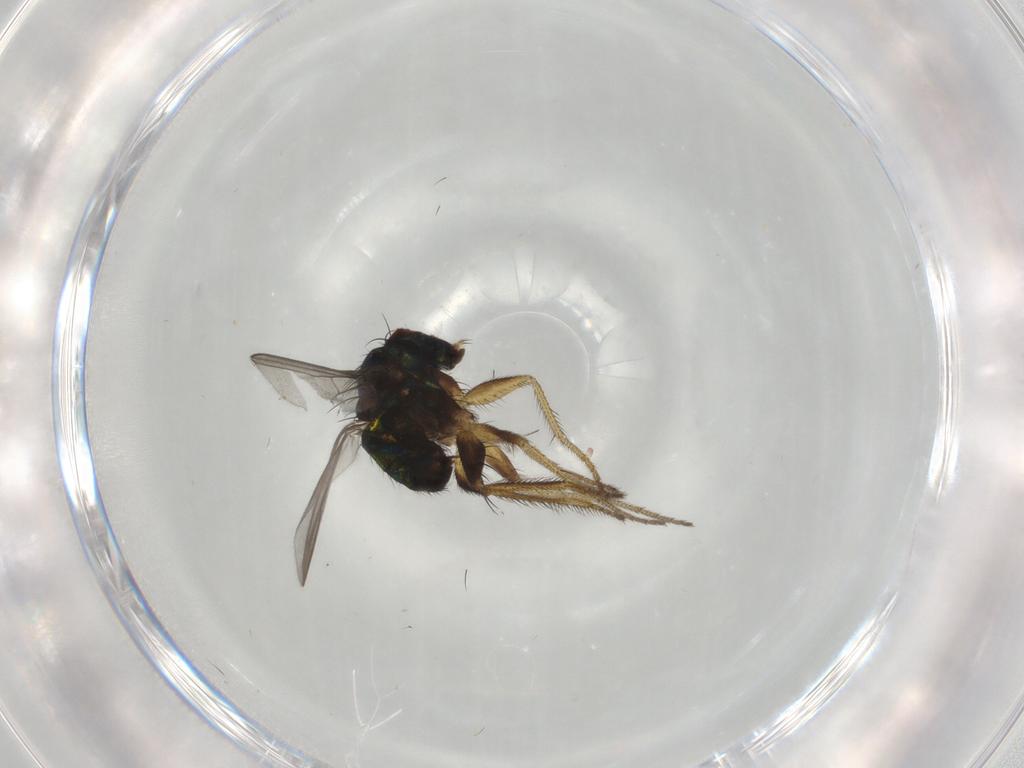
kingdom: Animalia
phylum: Arthropoda
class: Insecta
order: Diptera
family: Dolichopodidae
